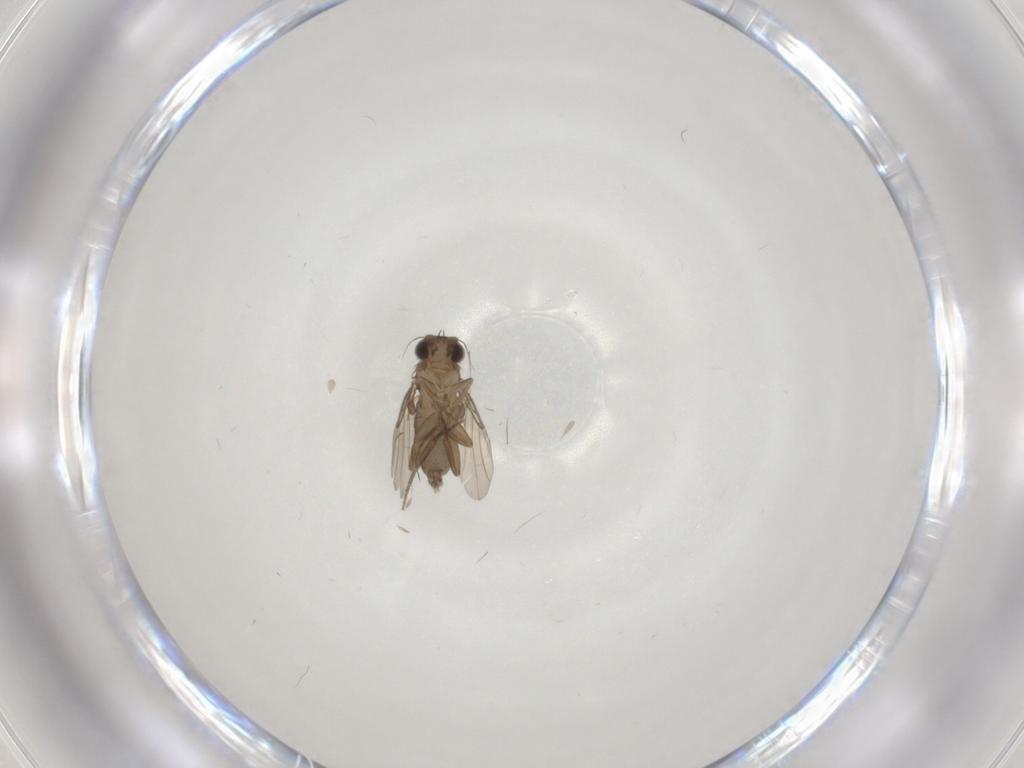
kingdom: Animalia
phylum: Arthropoda
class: Insecta
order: Diptera
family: Phoridae
